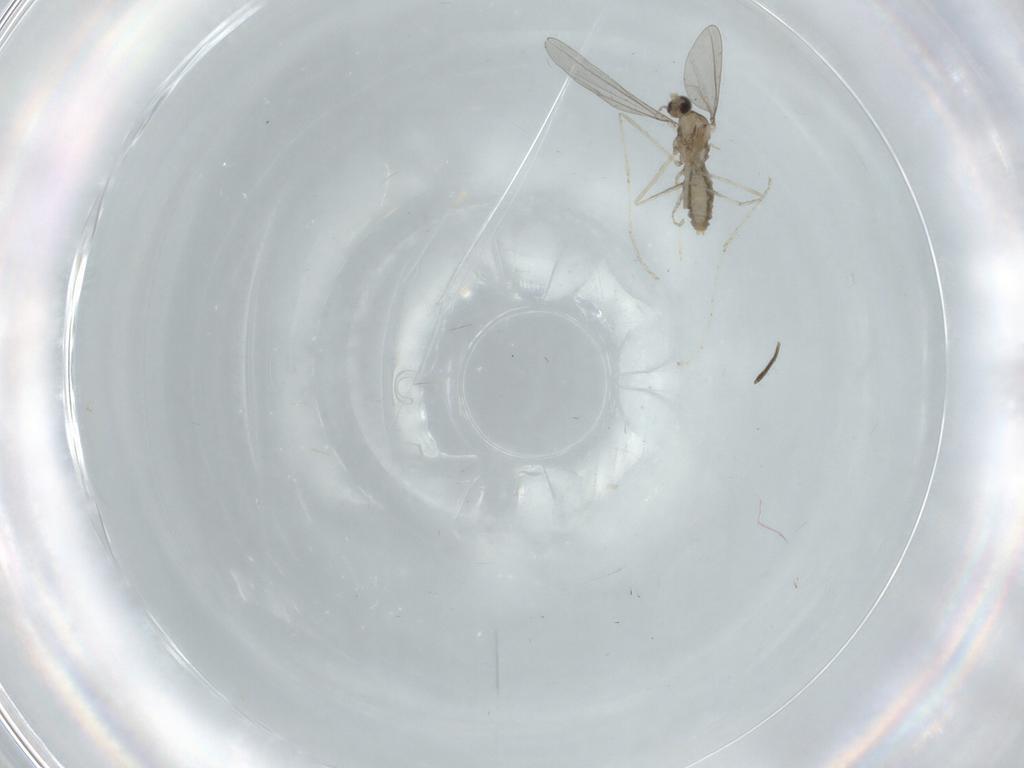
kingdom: Animalia
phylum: Arthropoda
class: Insecta
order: Diptera
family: Cecidomyiidae
